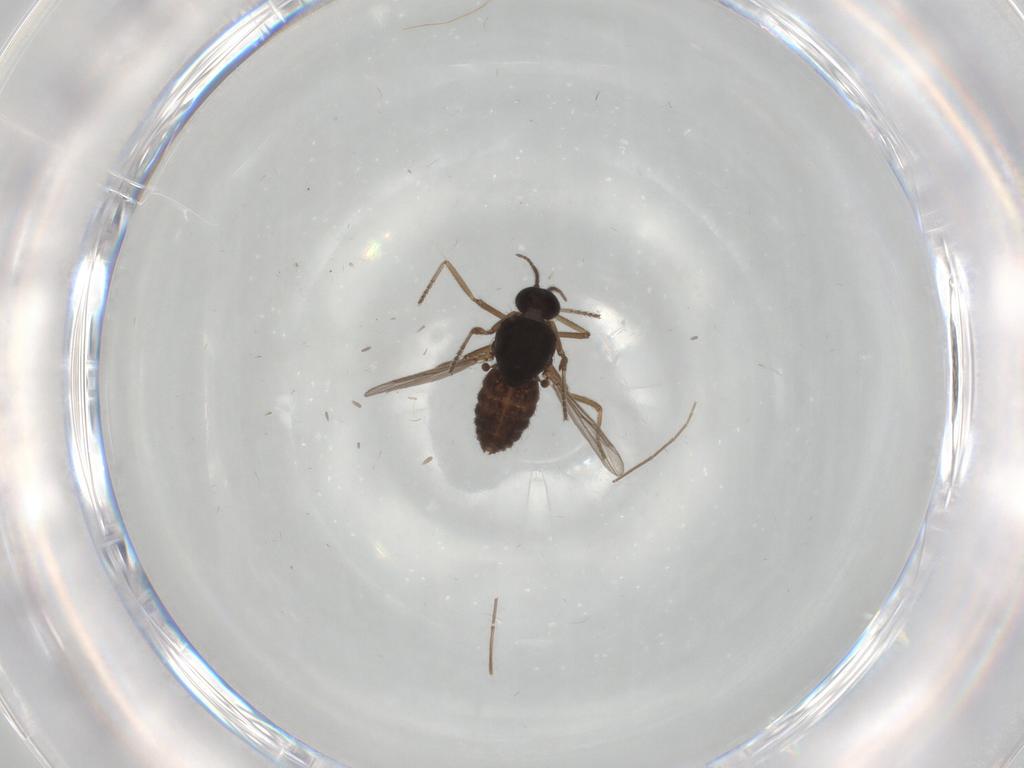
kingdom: Animalia
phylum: Arthropoda
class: Insecta
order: Diptera
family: Ceratopogonidae
